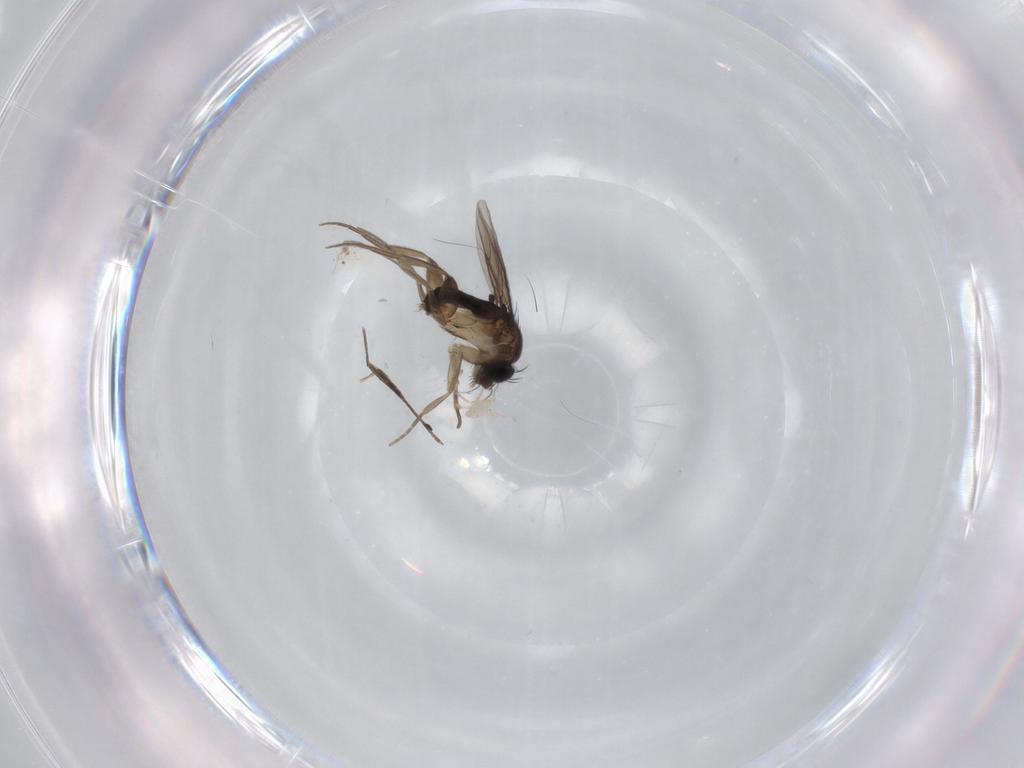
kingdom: Animalia
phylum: Arthropoda
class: Insecta
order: Diptera
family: Phoridae
